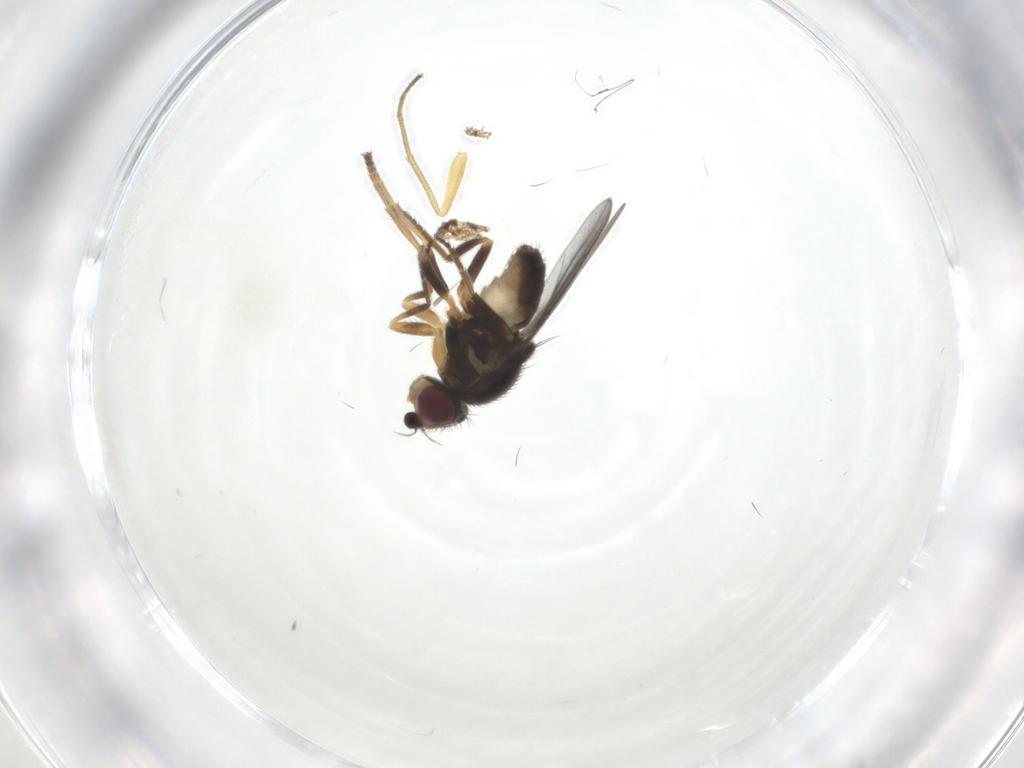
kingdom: Animalia
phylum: Arthropoda
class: Insecta
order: Diptera
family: Chloropidae
